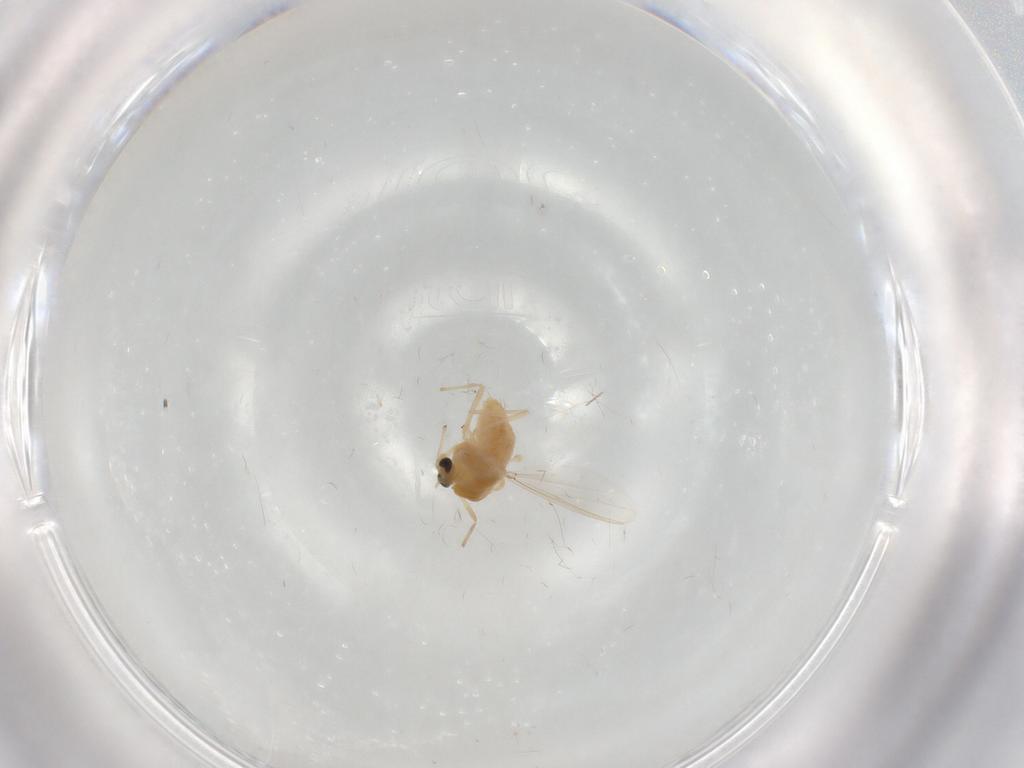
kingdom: Animalia
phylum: Arthropoda
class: Insecta
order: Diptera
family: Chironomidae
